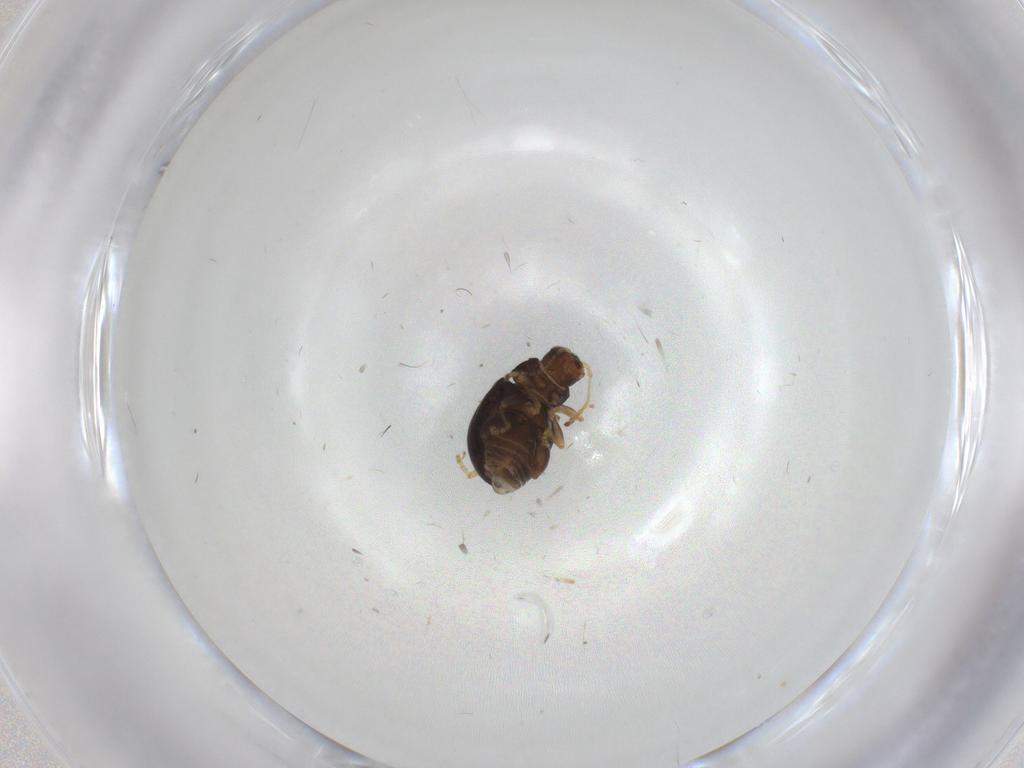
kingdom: Animalia
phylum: Arthropoda
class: Insecta
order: Coleoptera
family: Chrysomelidae
